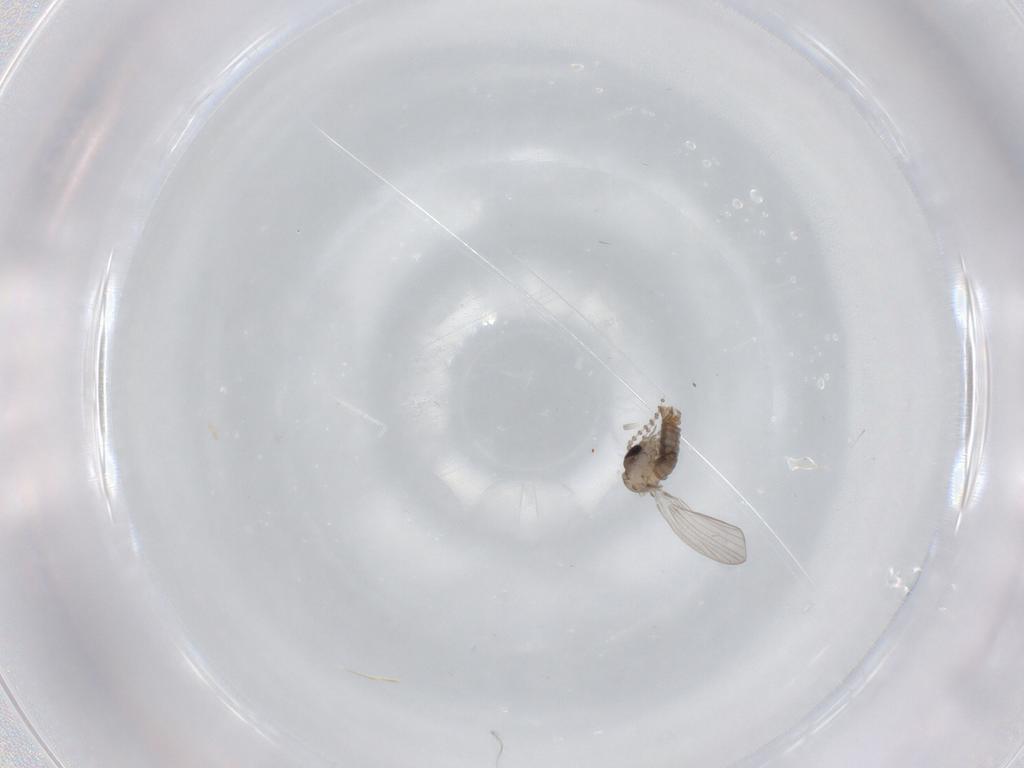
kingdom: Animalia
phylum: Arthropoda
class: Insecta
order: Diptera
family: Psychodidae
